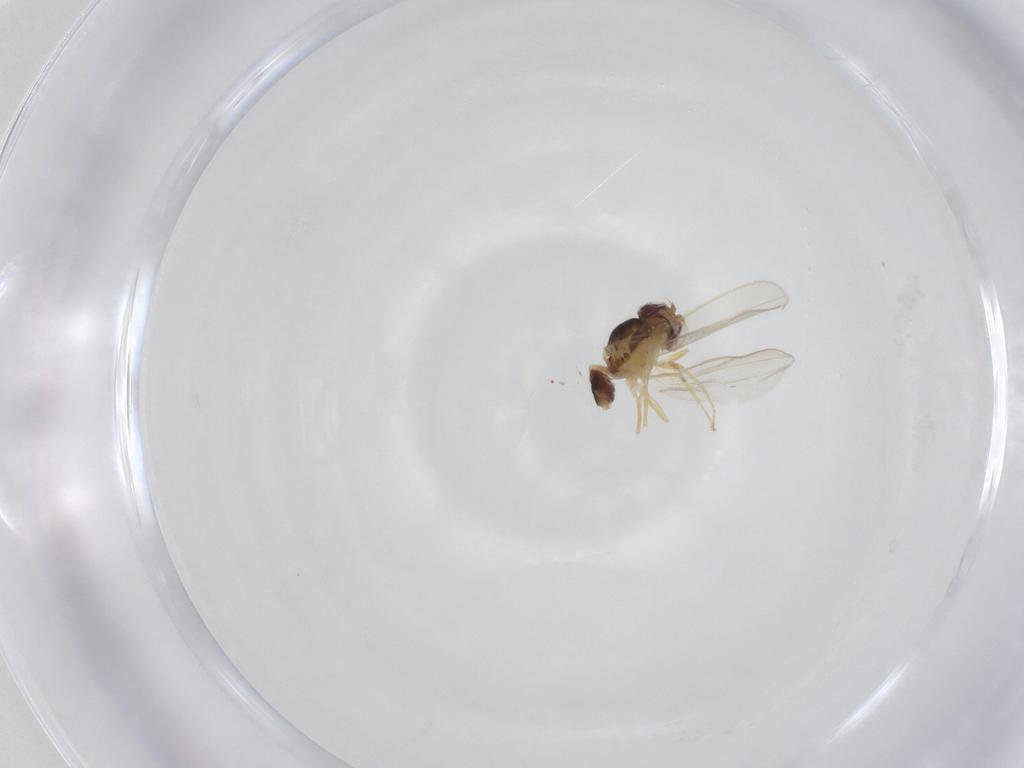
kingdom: Animalia
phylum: Arthropoda
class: Insecta
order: Diptera
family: Asteiidae
